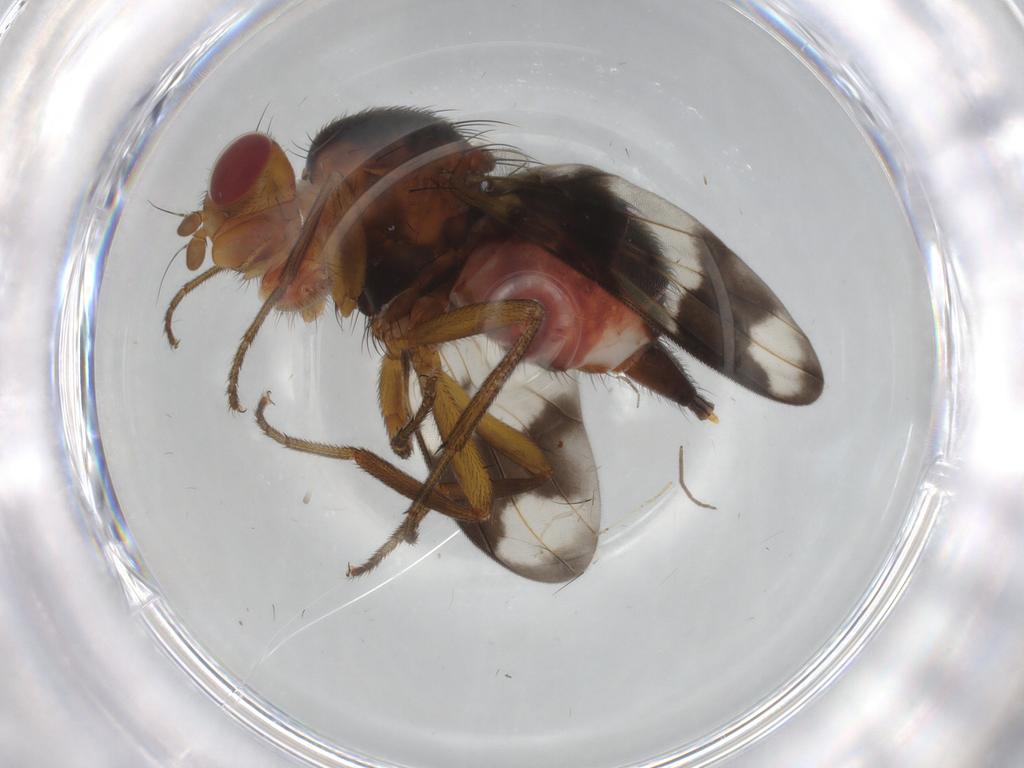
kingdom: Animalia
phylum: Arthropoda
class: Insecta
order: Diptera
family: Richardiidae
